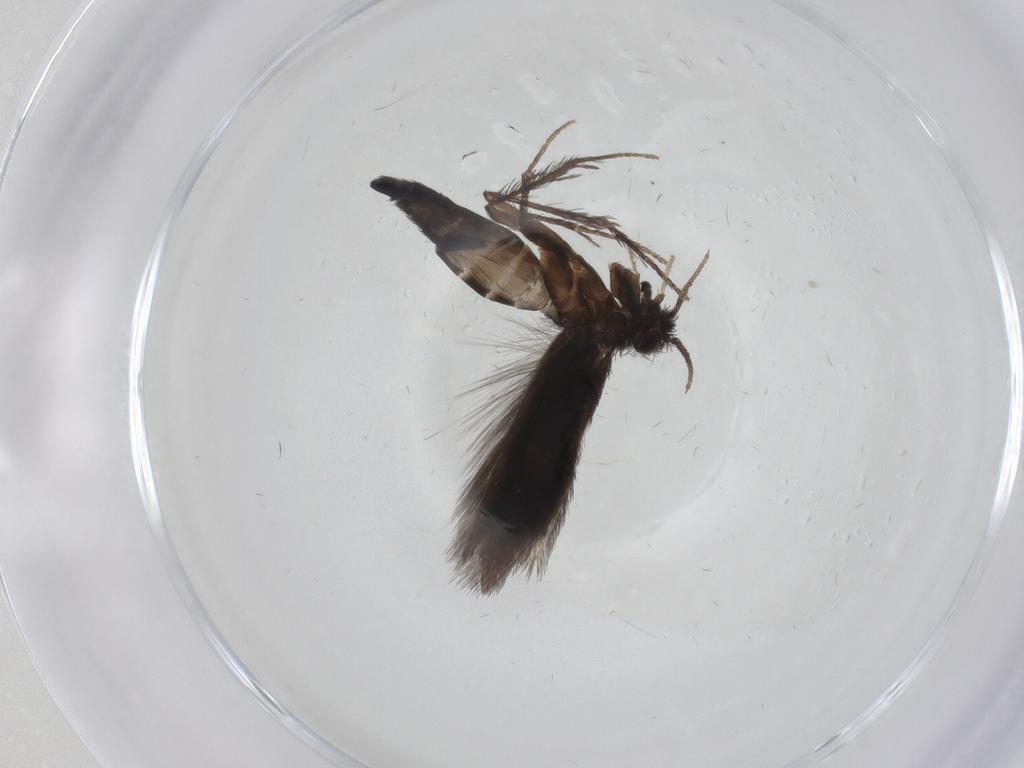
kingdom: Animalia
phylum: Arthropoda
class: Insecta
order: Trichoptera
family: Hydroptilidae
